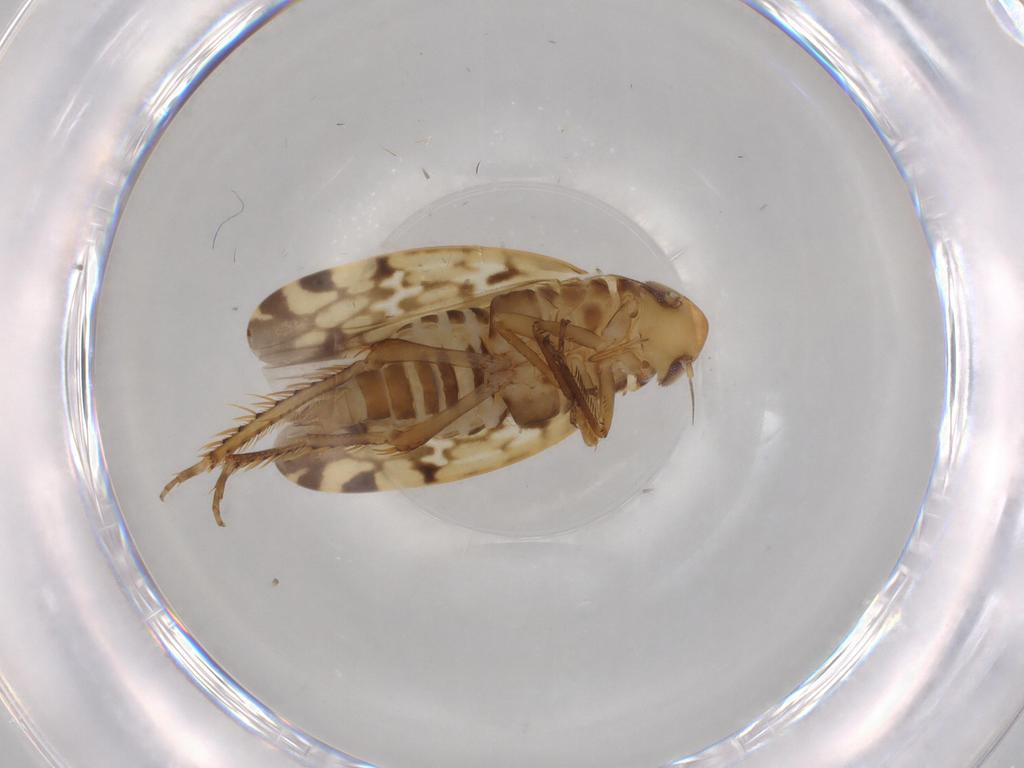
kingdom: Animalia
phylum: Arthropoda
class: Insecta
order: Hemiptera
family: Cicadellidae
